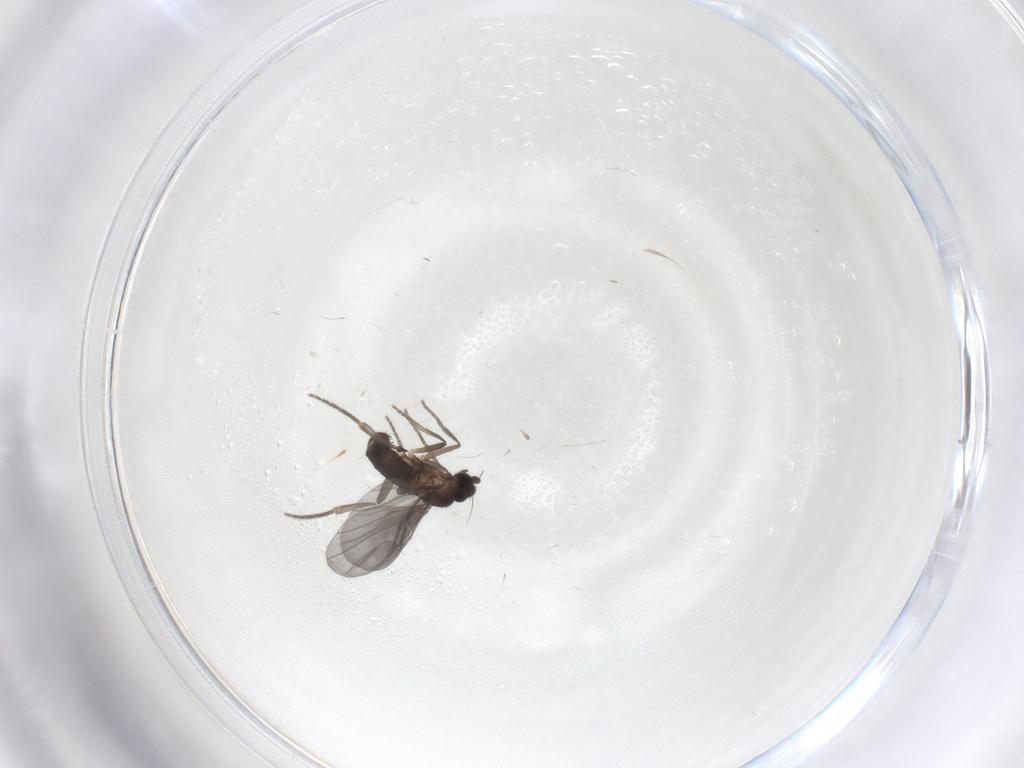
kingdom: Animalia
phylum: Arthropoda
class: Insecta
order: Diptera
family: Phoridae
